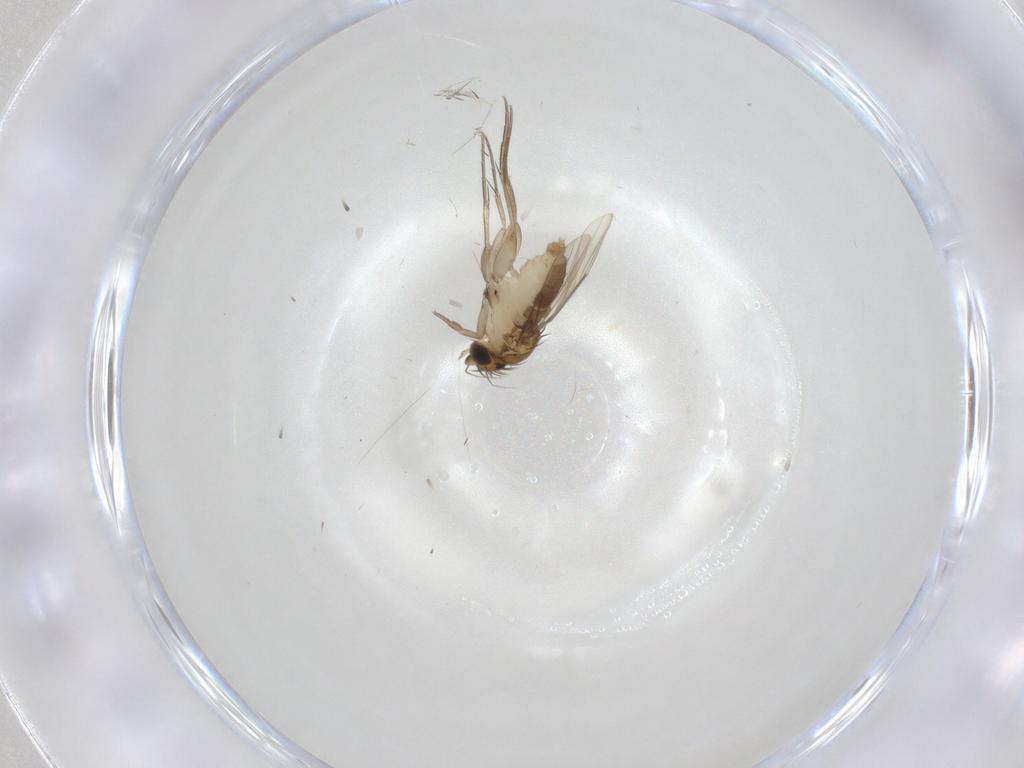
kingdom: Animalia
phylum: Arthropoda
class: Insecta
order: Diptera
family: Phoridae
